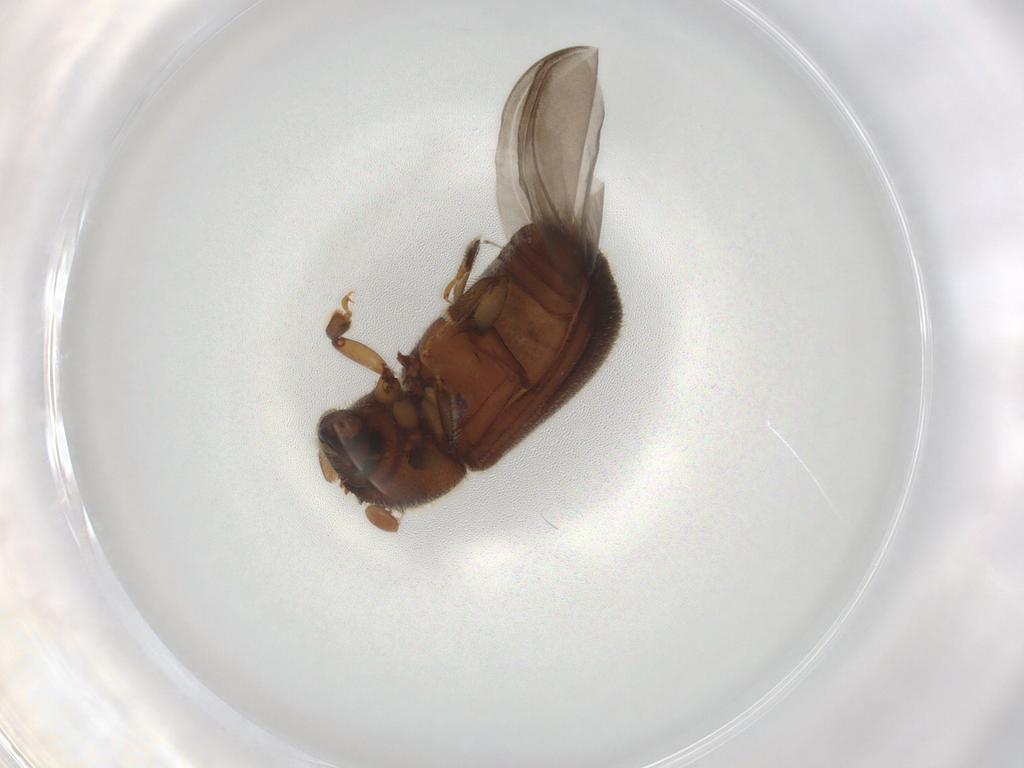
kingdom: Animalia
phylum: Arthropoda
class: Insecta
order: Coleoptera
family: Curculionidae
